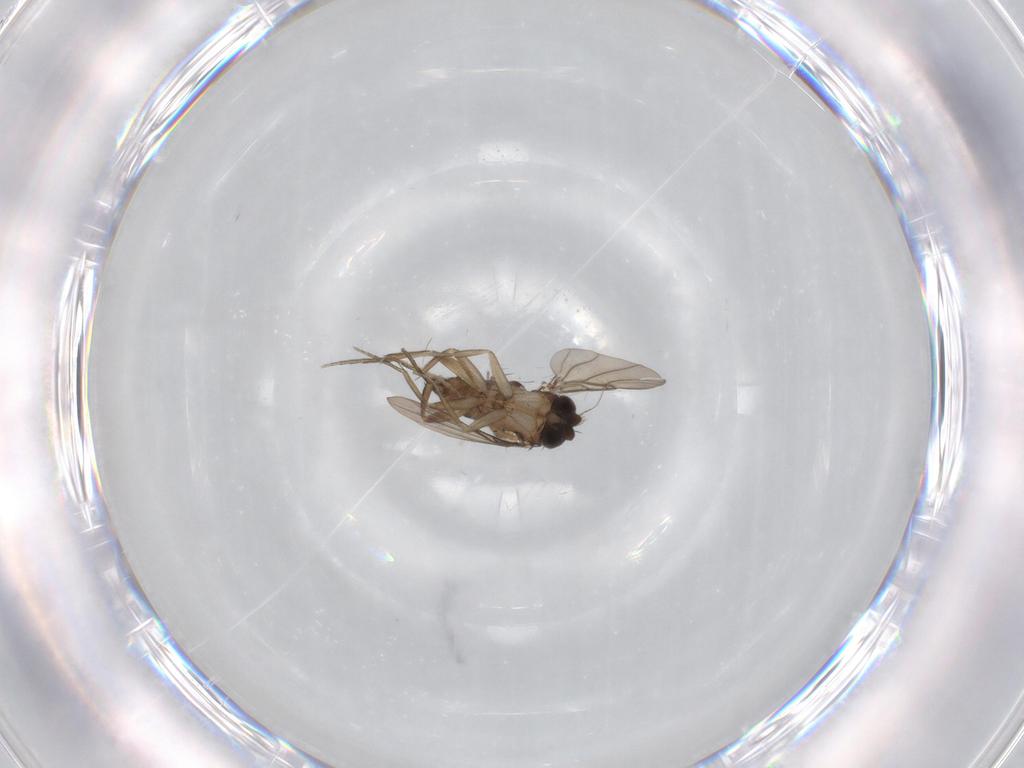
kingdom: Animalia
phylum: Arthropoda
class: Insecta
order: Diptera
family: Phoridae
